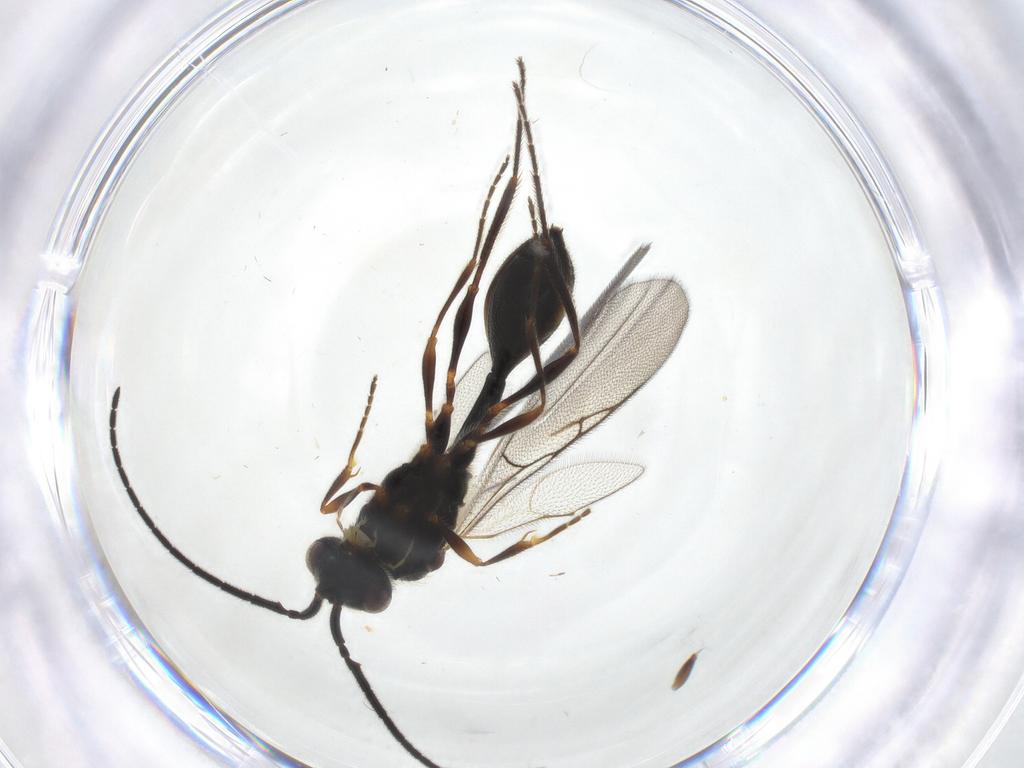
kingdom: Animalia
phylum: Arthropoda
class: Insecta
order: Hymenoptera
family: Diapriidae
